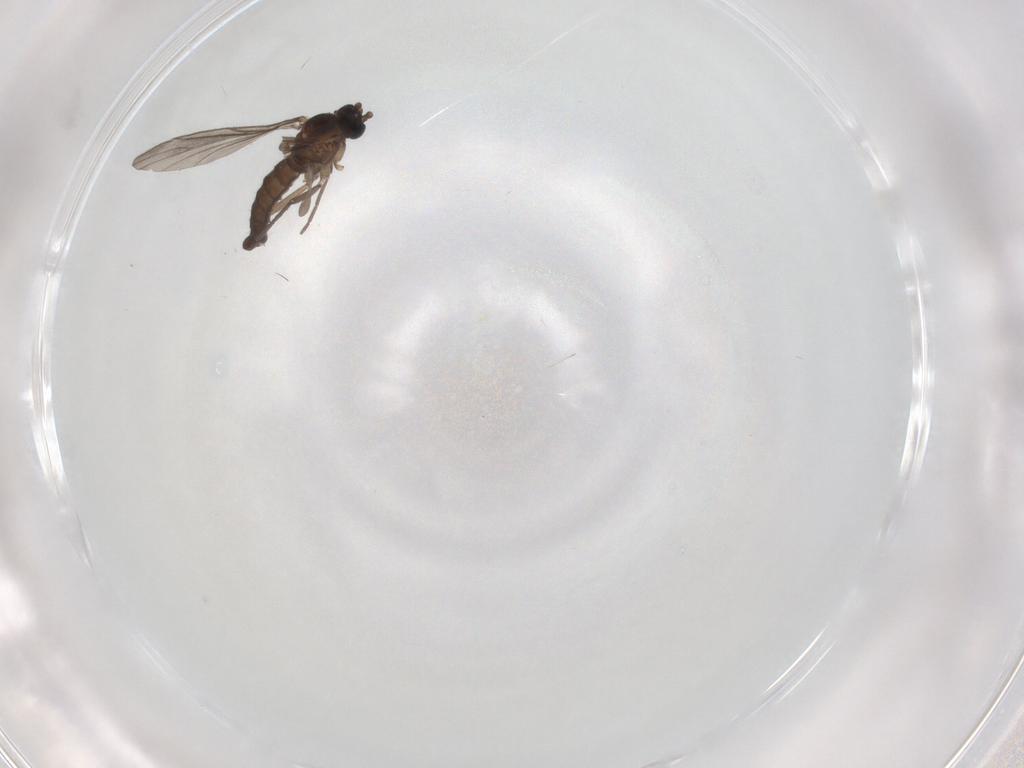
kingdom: Animalia
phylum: Arthropoda
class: Insecta
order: Diptera
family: Sciaridae
